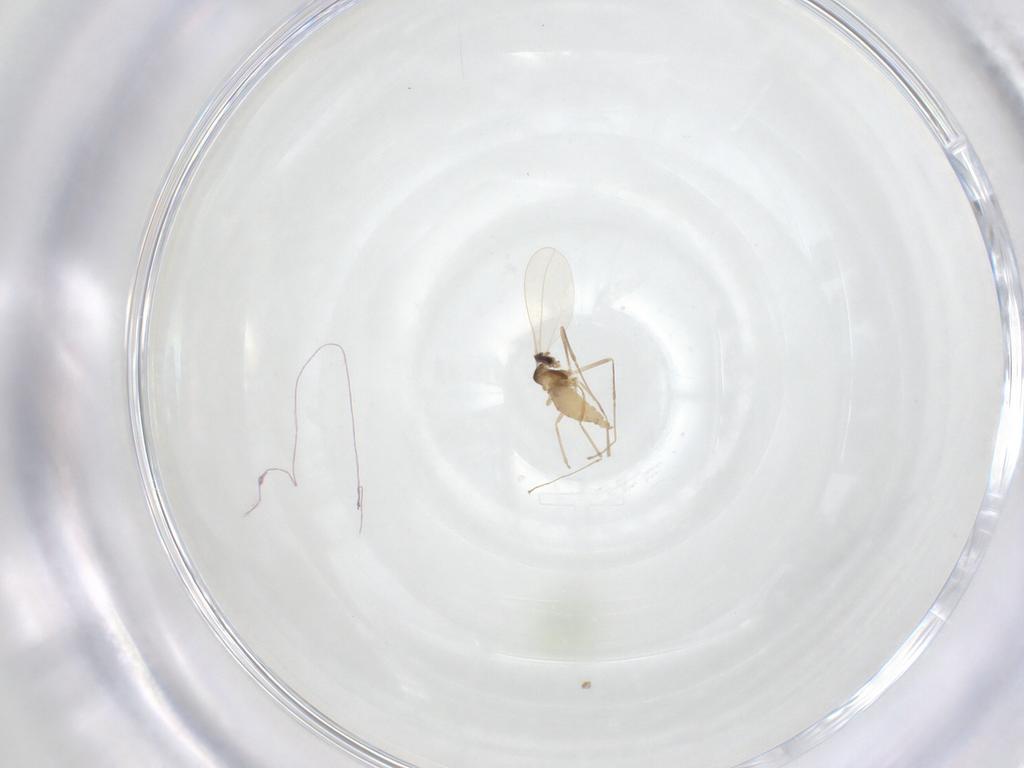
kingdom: Animalia
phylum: Arthropoda
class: Insecta
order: Diptera
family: Cecidomyiidae
